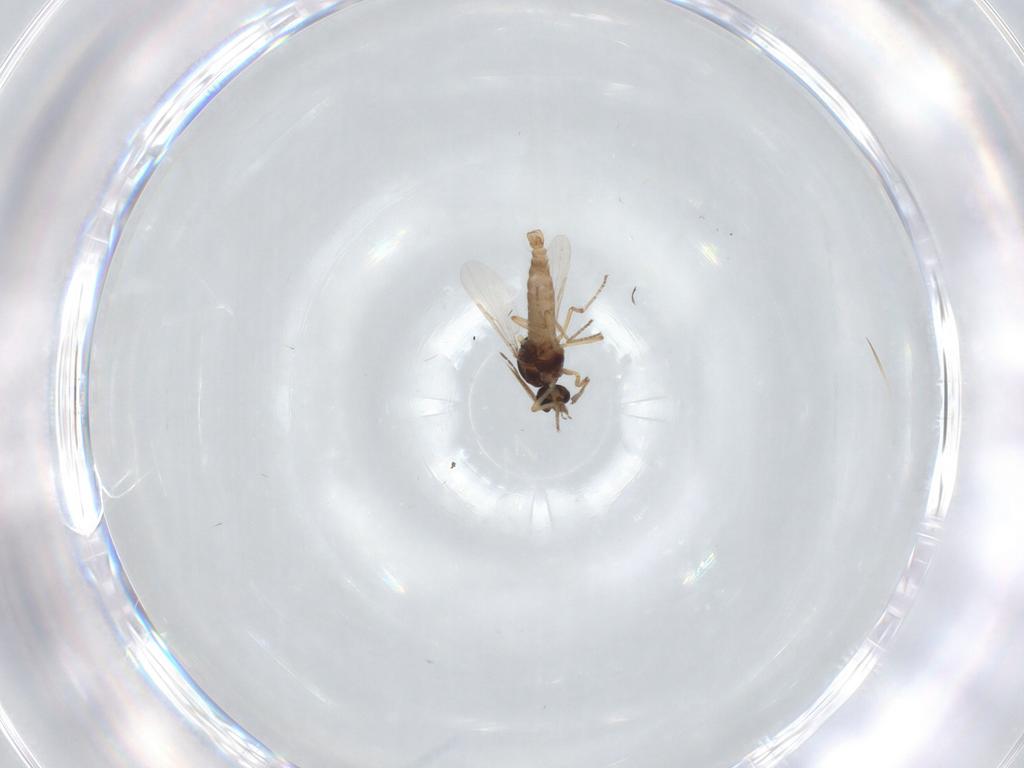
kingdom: Animalia
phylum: Arthropoda
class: Insecta
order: Diptera
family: Ceratopogonidae
